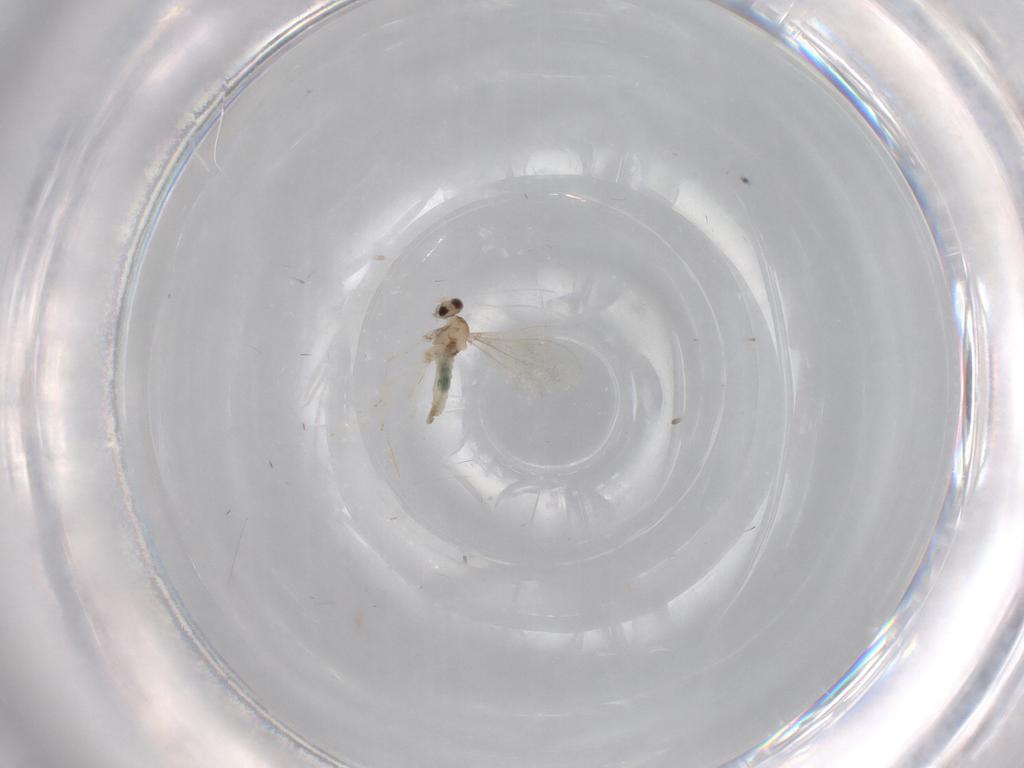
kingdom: Animalia
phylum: Arthropoda
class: Insecta
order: Diptera
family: Cecidomyiidae
